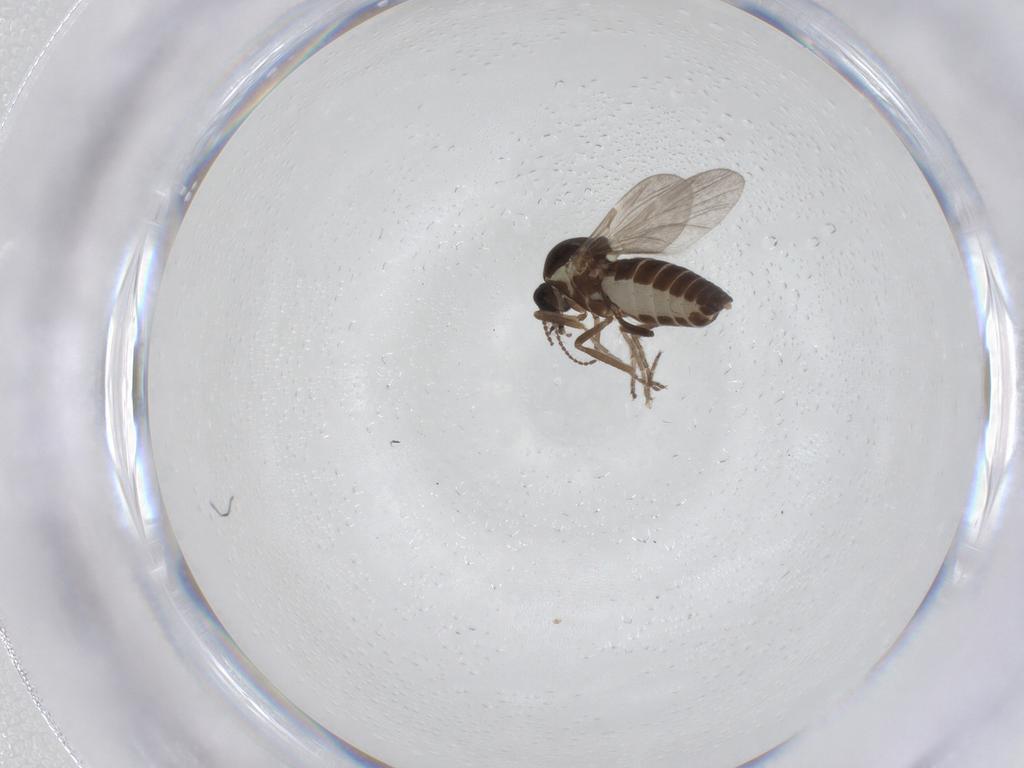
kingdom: Animalia
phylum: Arthropoda
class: Insecta
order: Diptera
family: Ceratopogonidae
